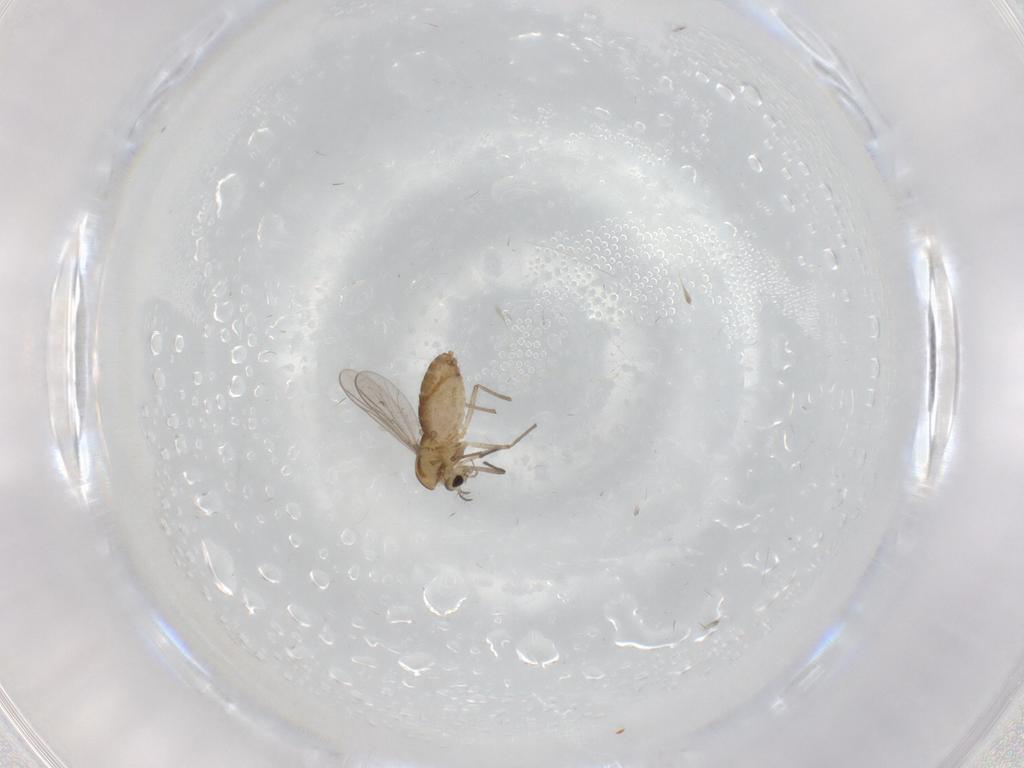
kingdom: Animalia
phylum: Arthropoda
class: Insecta
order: Diptera
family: Chironomidae
